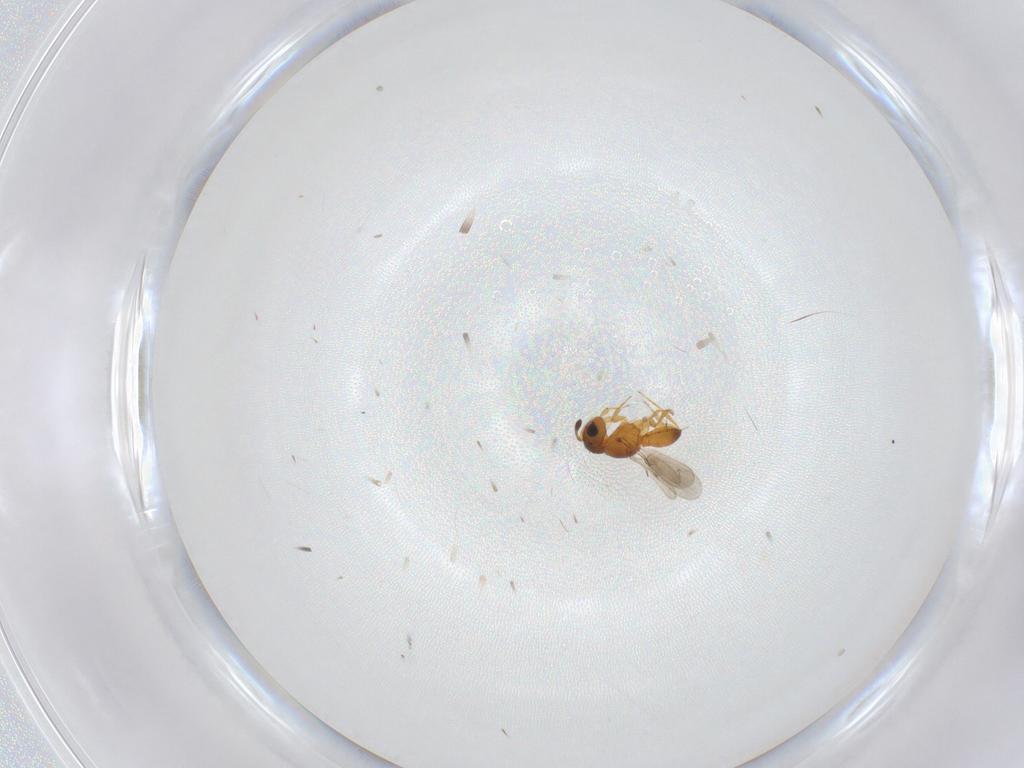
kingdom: Animalia
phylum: Arthropoda
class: Insecta
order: Hymenoptera
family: Scelionidae
